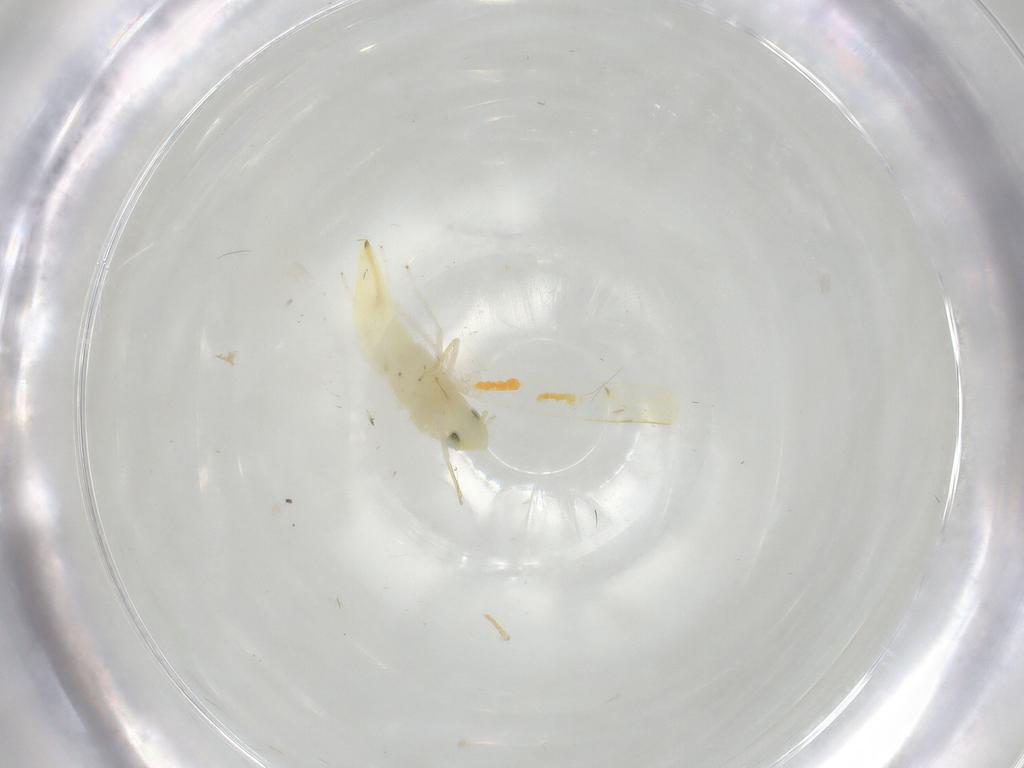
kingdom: Animalia
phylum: Arthropoda
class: Insecta
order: Hemiptera
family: Cicadellidae
